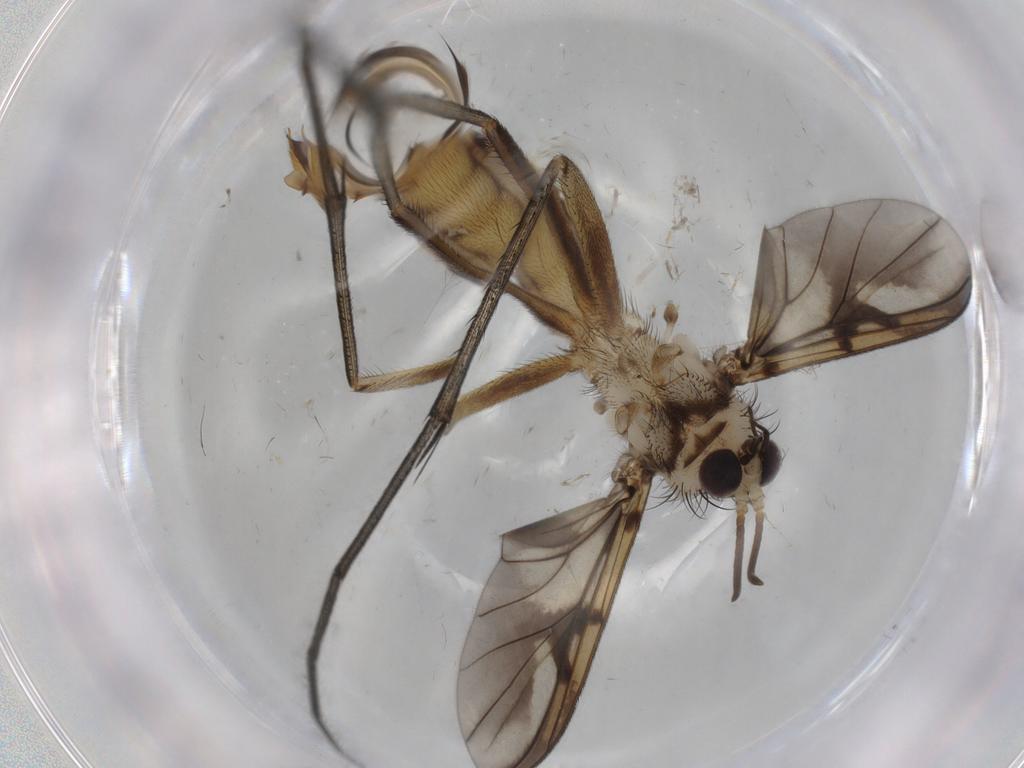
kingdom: Animalia
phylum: Arthropoda
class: Insecta
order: Diptera
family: Mycetophilidae
